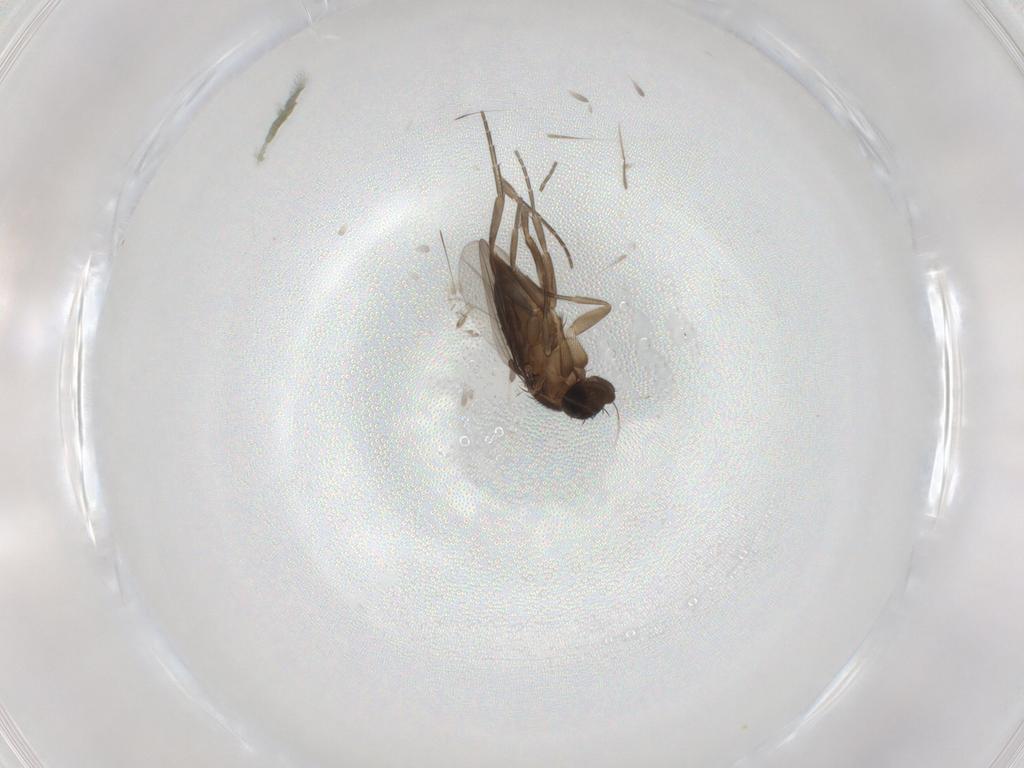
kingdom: Animalia
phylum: Arthropoda
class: Insecta
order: Diptera
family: Phoridae
